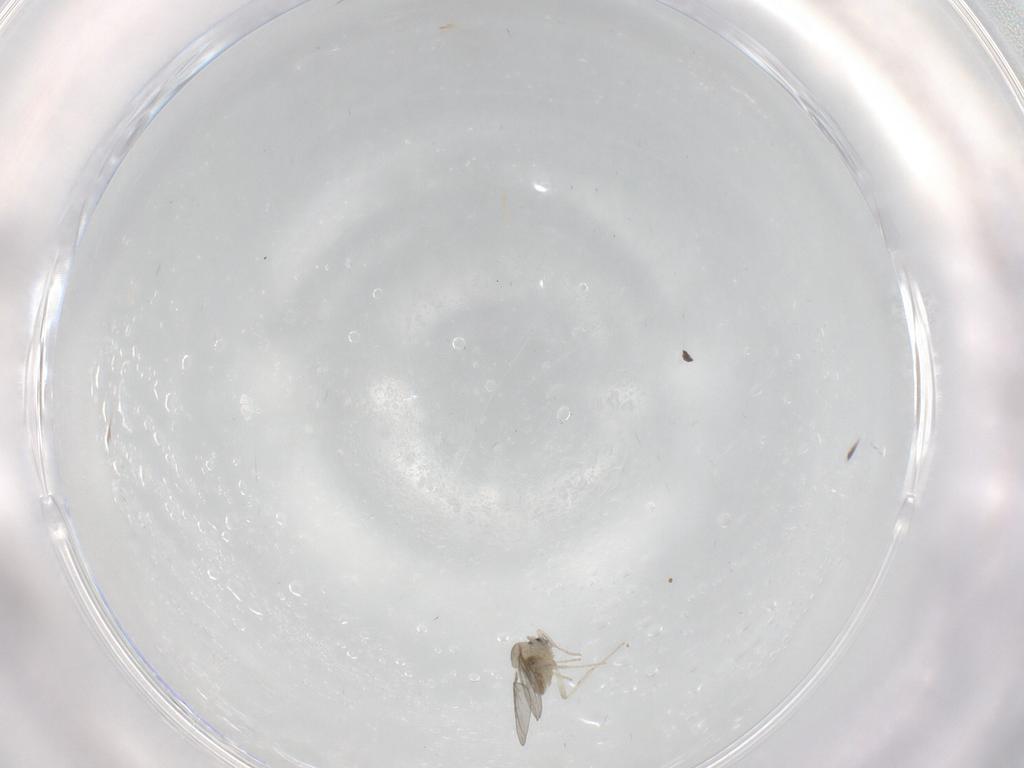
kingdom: Animalia
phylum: Arthropoda
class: Insecta
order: Diptera
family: Cecidomyiidae
